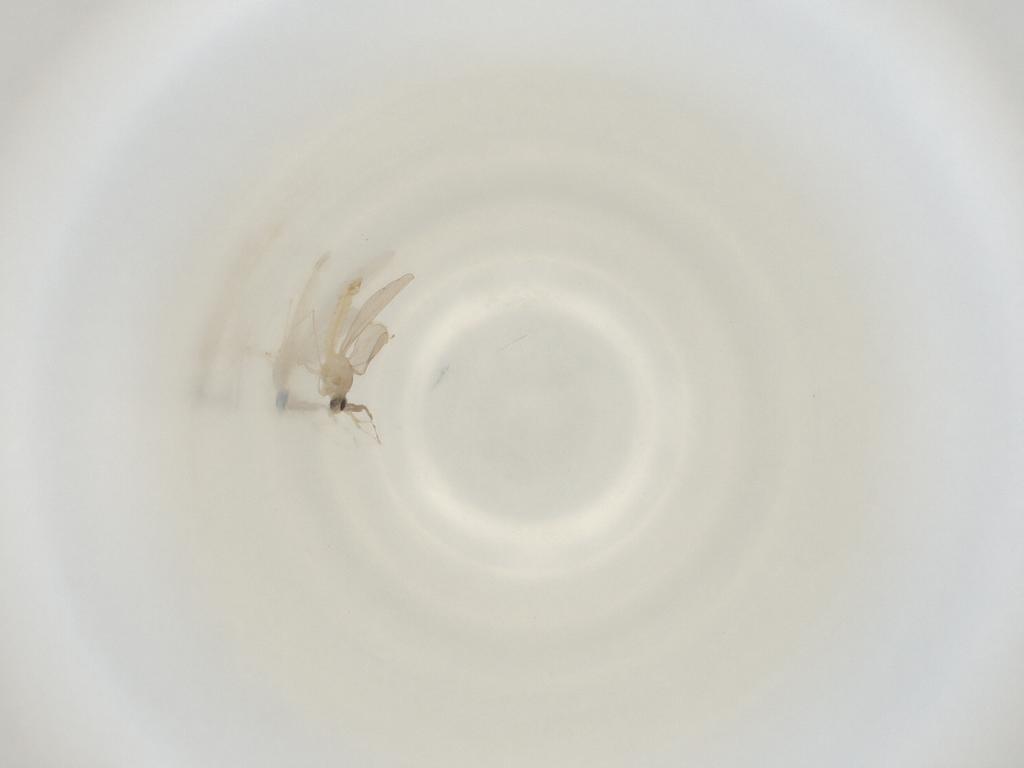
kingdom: Animalia
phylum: Arthropoda
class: Insecta
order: Diptera
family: Cecidomyiidae
